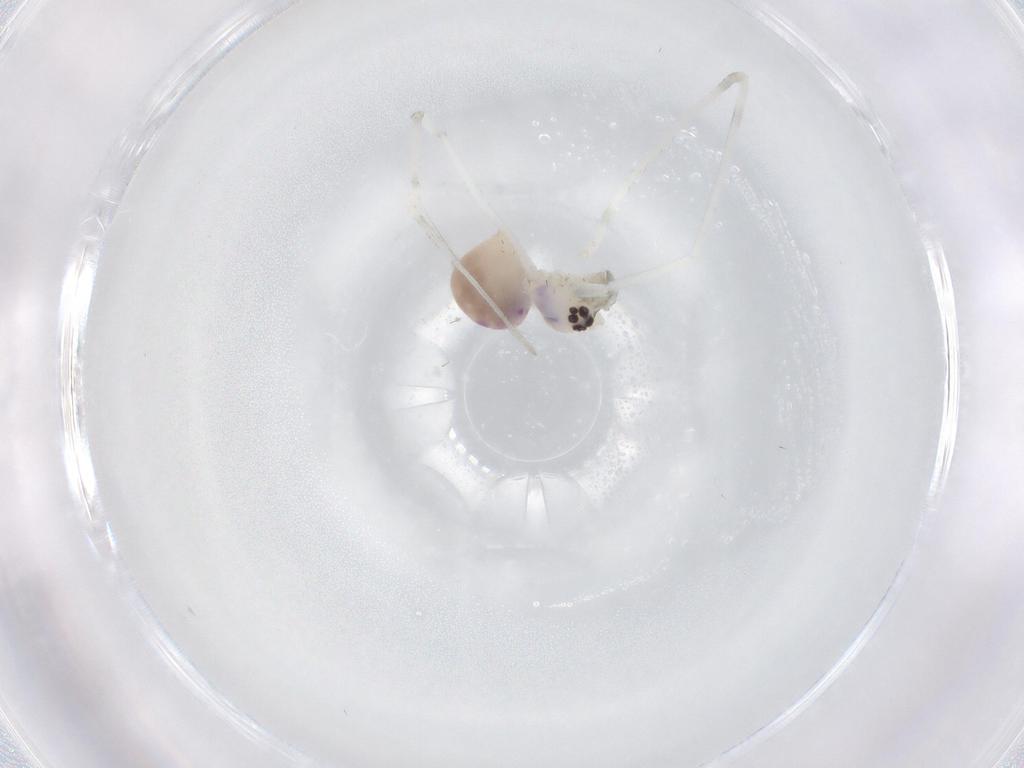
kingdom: Animalia
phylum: Arthropoda
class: Arachnida
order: Araneae
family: Pholcidae
